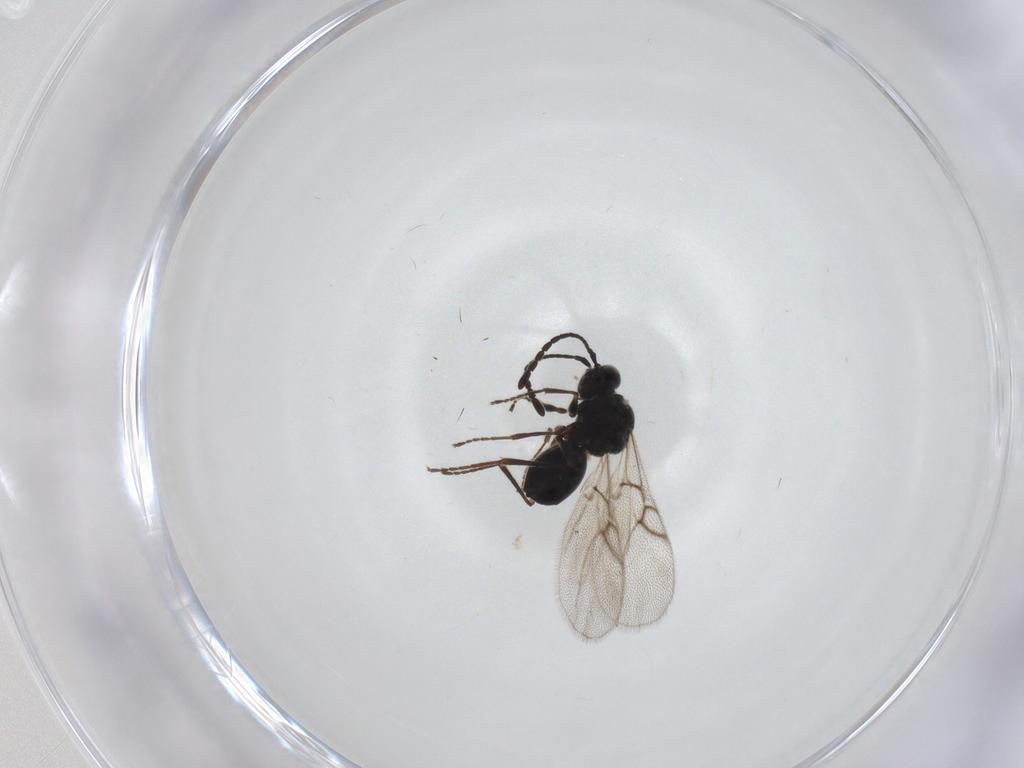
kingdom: Animalia
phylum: Arthropoda
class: Insecta
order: Hymenoptera
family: Figitidae
